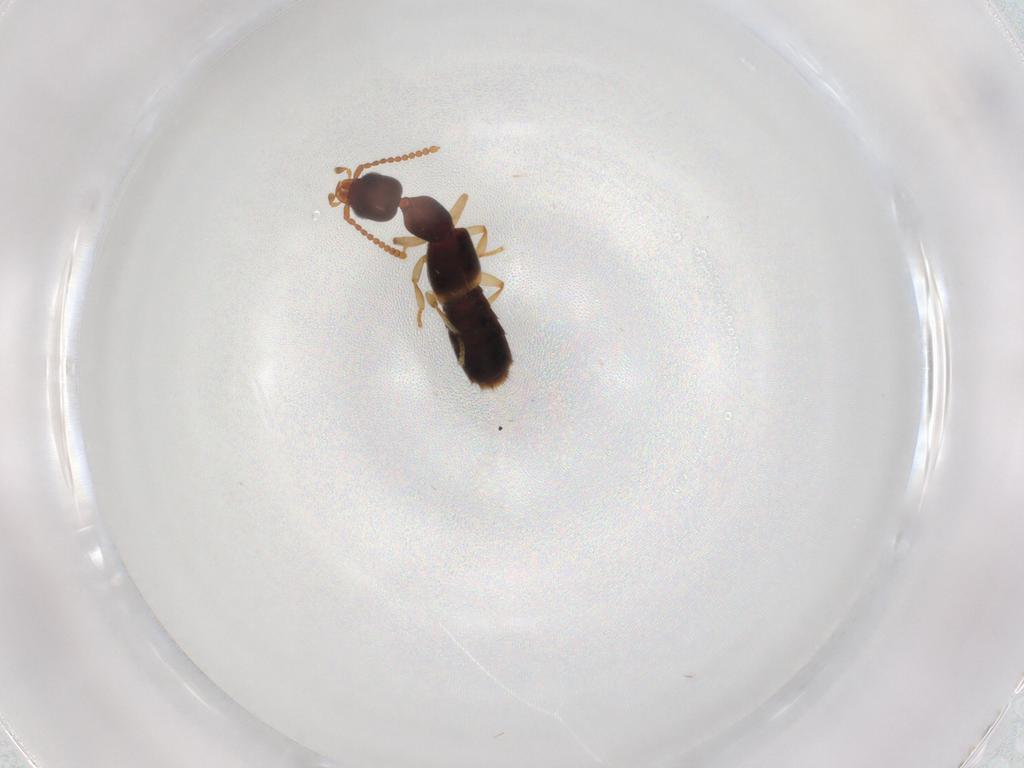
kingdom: Animalia
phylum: Arthropoda
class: Insecta
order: Coleoptera
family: Staphylinidae
